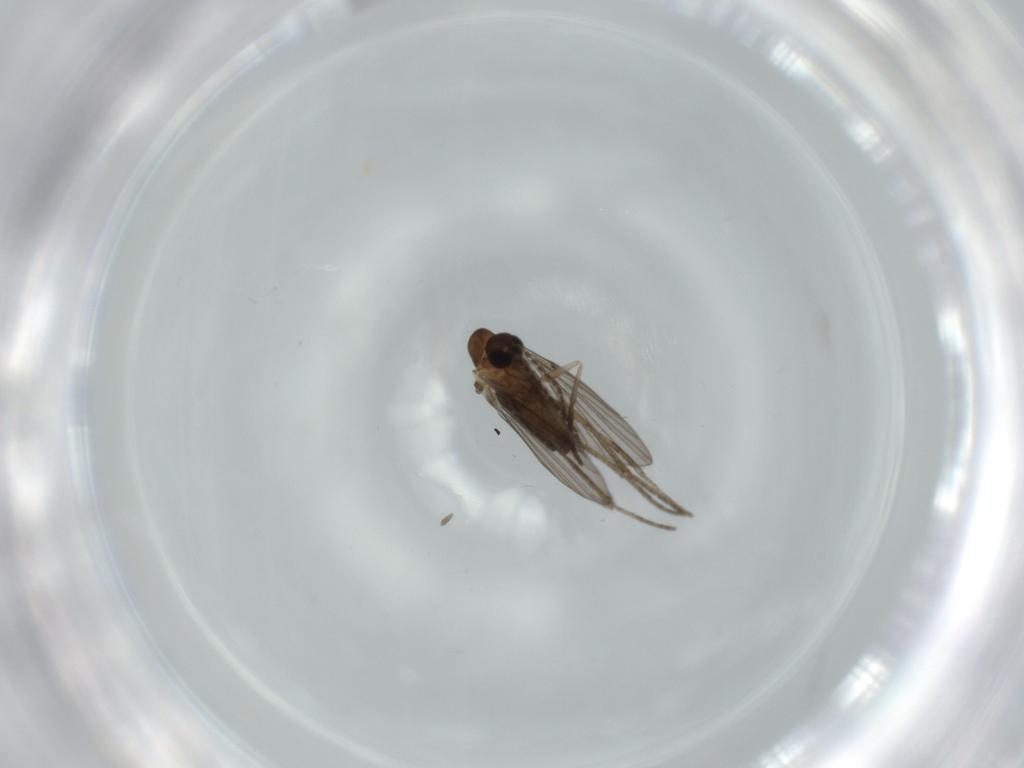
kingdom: Animalia
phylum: Arthropoda
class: Insecta
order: Diptera
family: Psychodidae
